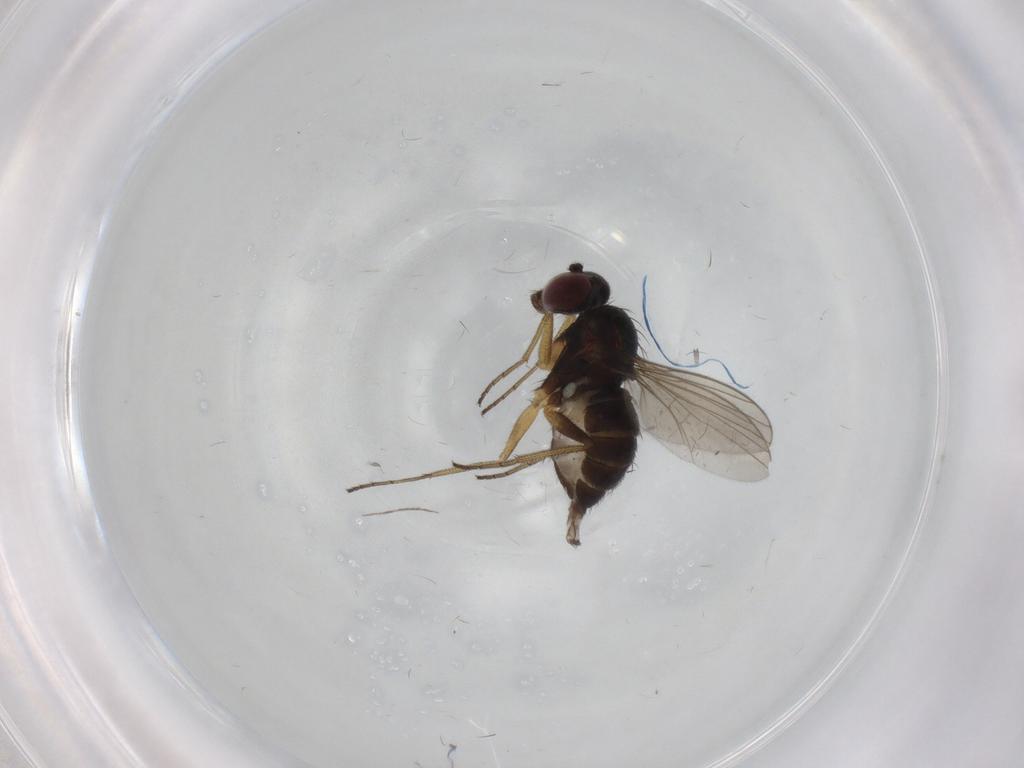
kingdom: Animalia
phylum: Arthropoda
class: Insecta
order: Diptera
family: Dolichopodidae
